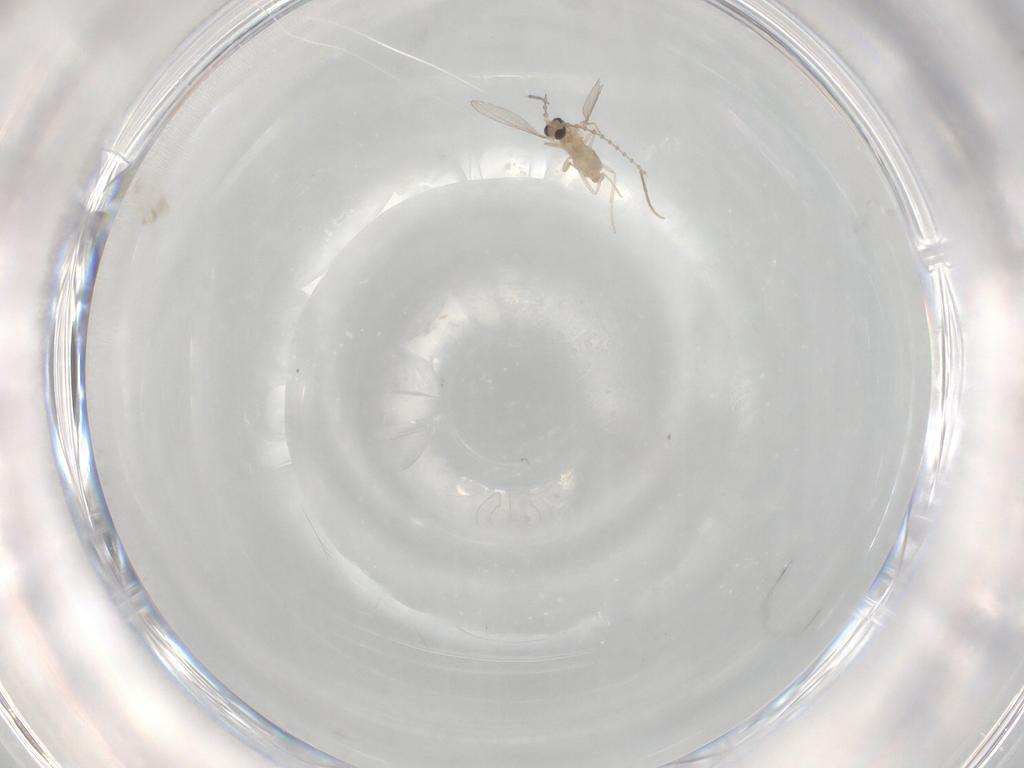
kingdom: Animalia
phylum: Arthropoda
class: Insecta
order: Diptera
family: Cecidomyiidae
